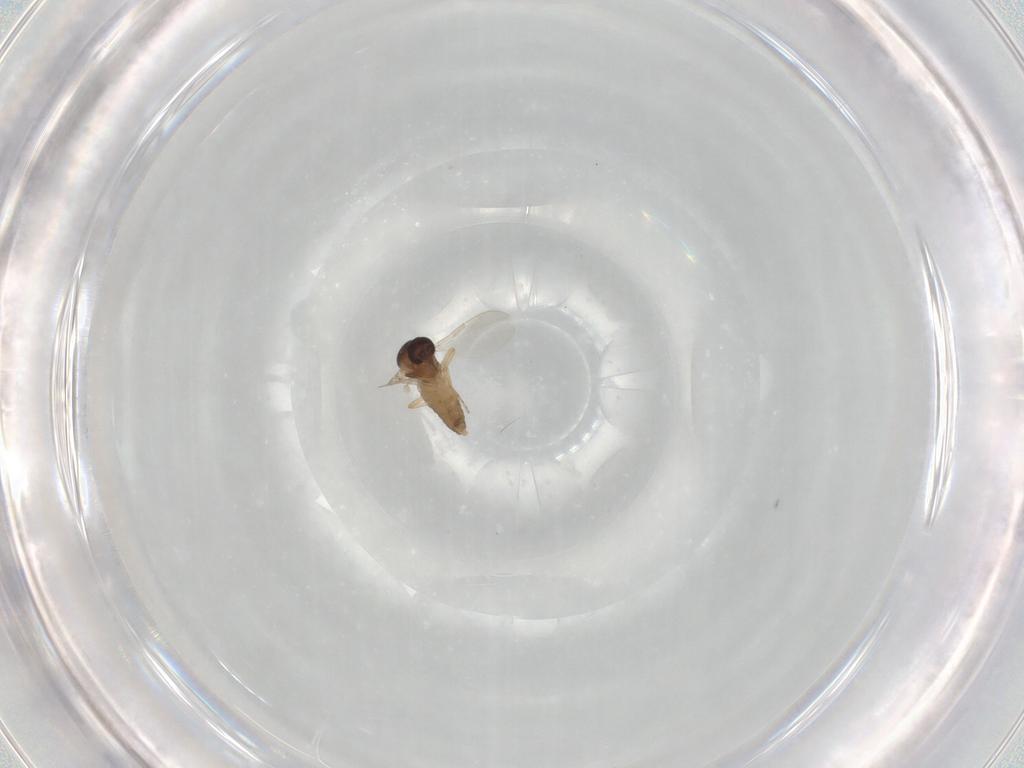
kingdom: Animalia
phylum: Arthropoda
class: Insecta
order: Diptera
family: Ceratopogonidae
